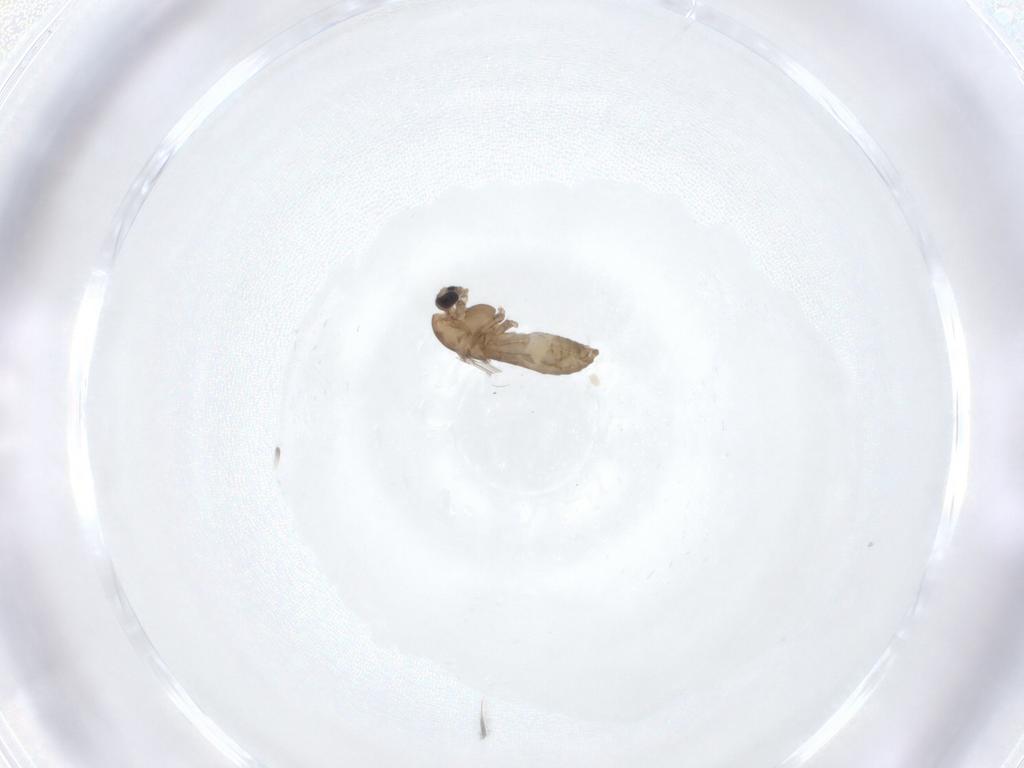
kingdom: Animalia
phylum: Arthropoda
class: Insecta
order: Diptera
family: Chironomidae
